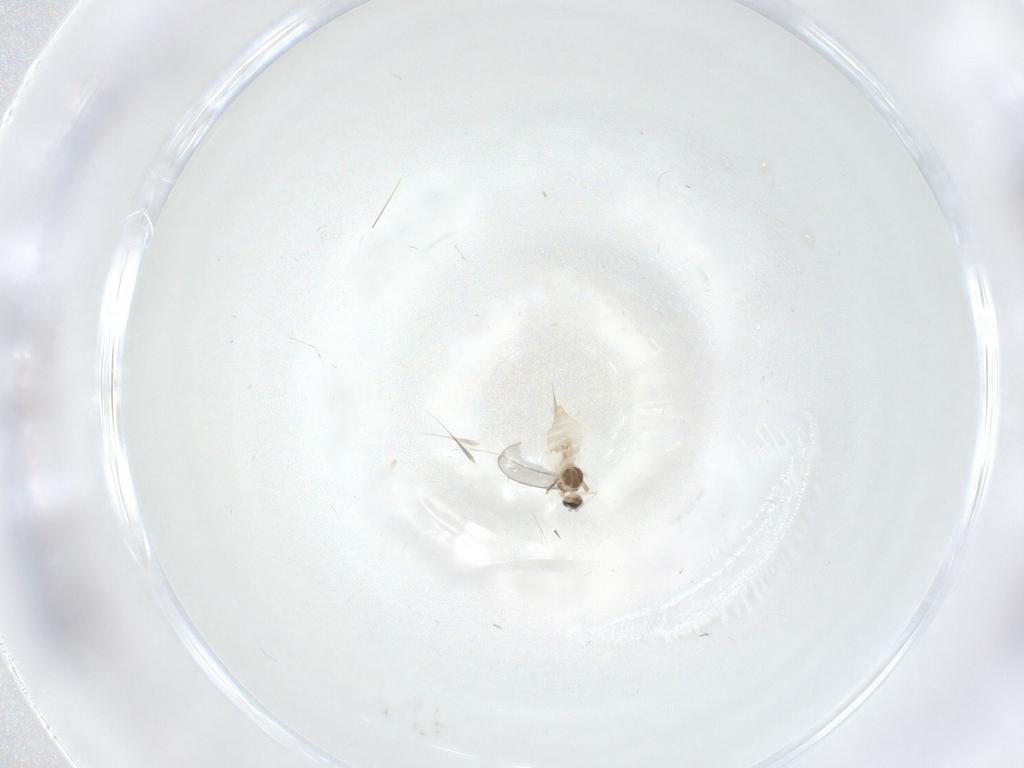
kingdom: Animalia
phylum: Arthropoda
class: Insecta
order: Diptera
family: Cecidomyiidae
